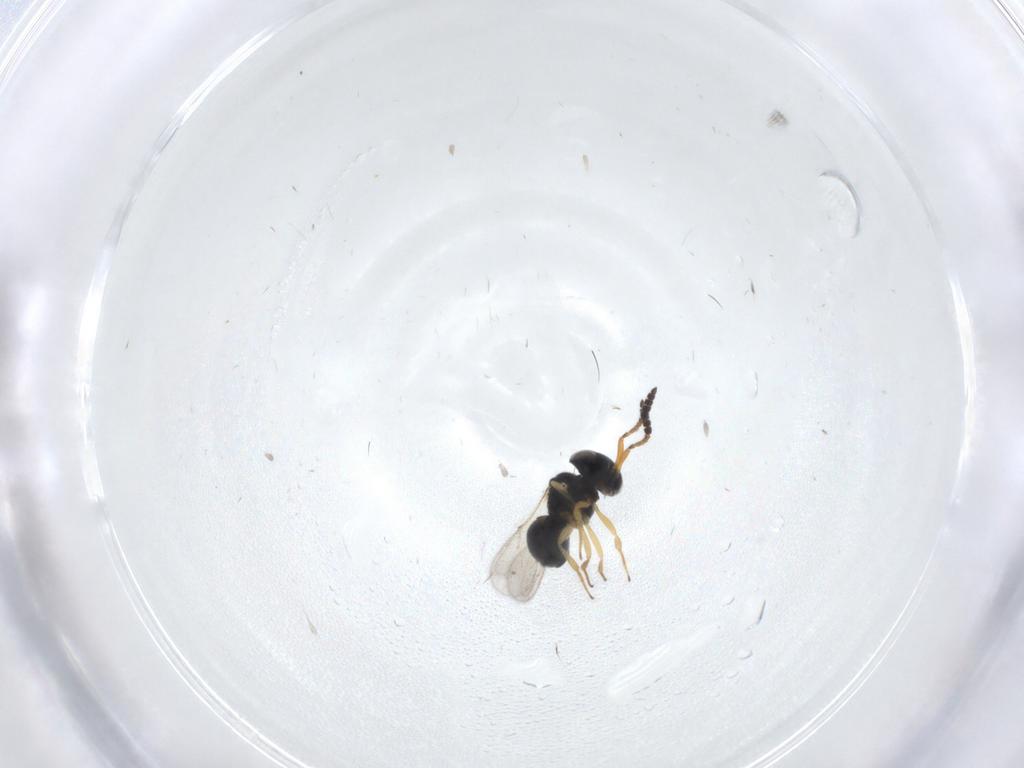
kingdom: Animalia
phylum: Arthropoda
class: Insecta
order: Hymenoptera
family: Scelionidae
